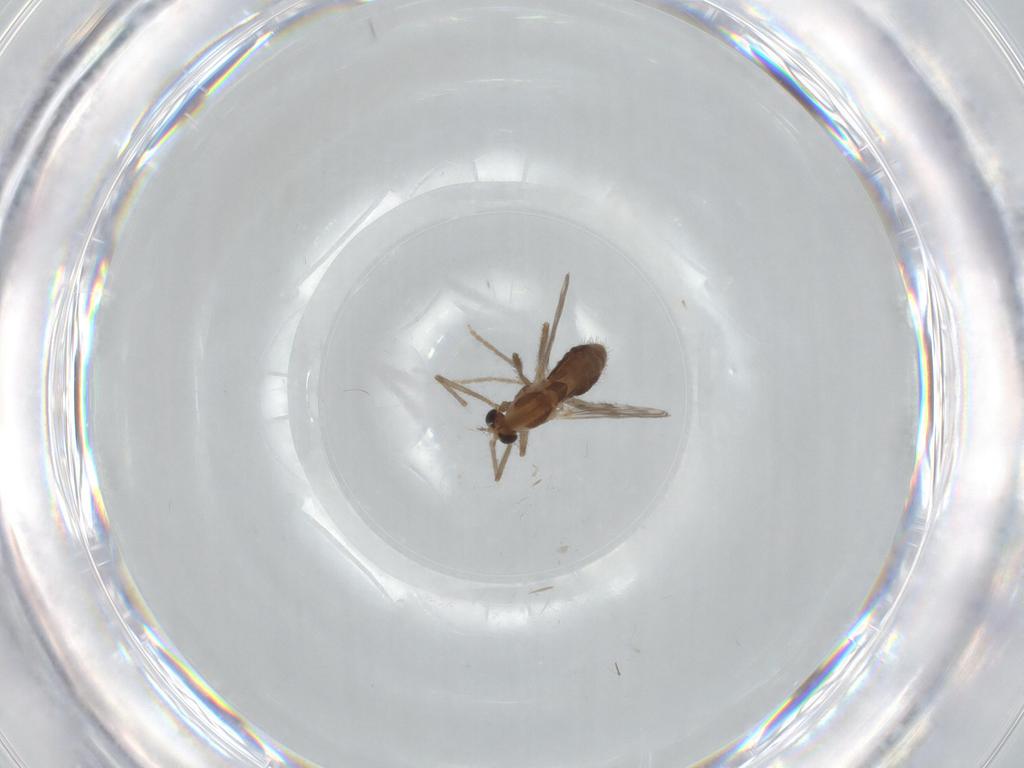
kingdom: Animalia
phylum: Arthropoda
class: Insecta
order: Diptera
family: Chironomidae
